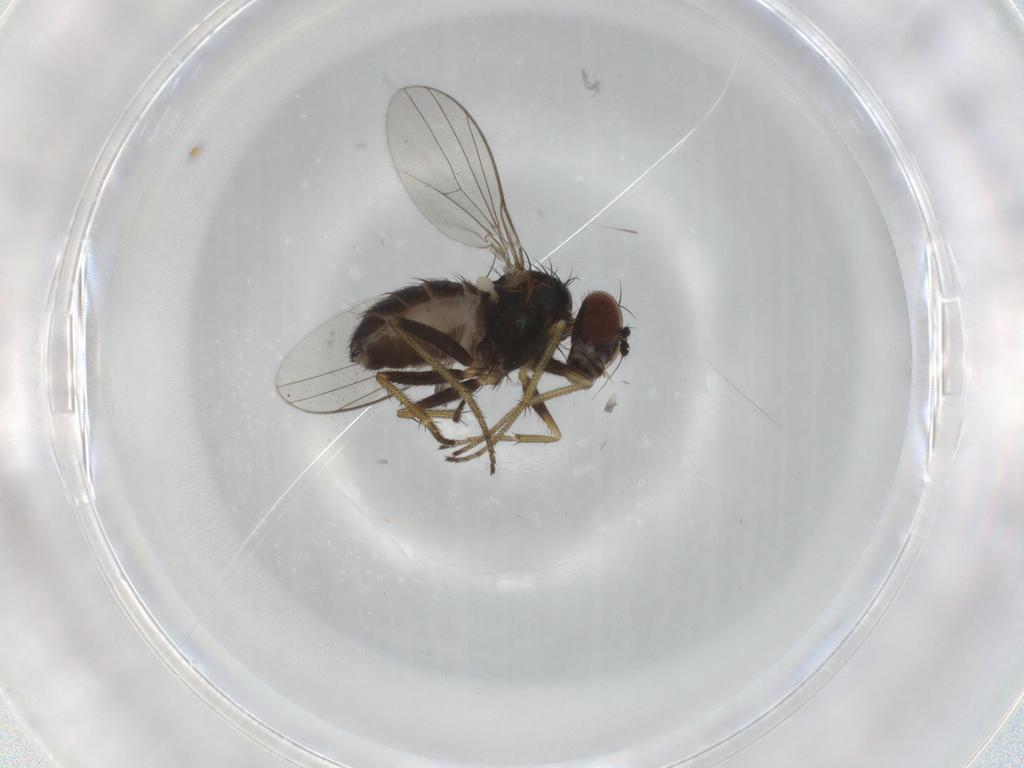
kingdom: Animalia
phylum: Arthropoda
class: Insecta
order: Diptera
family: Dolichopodidae
